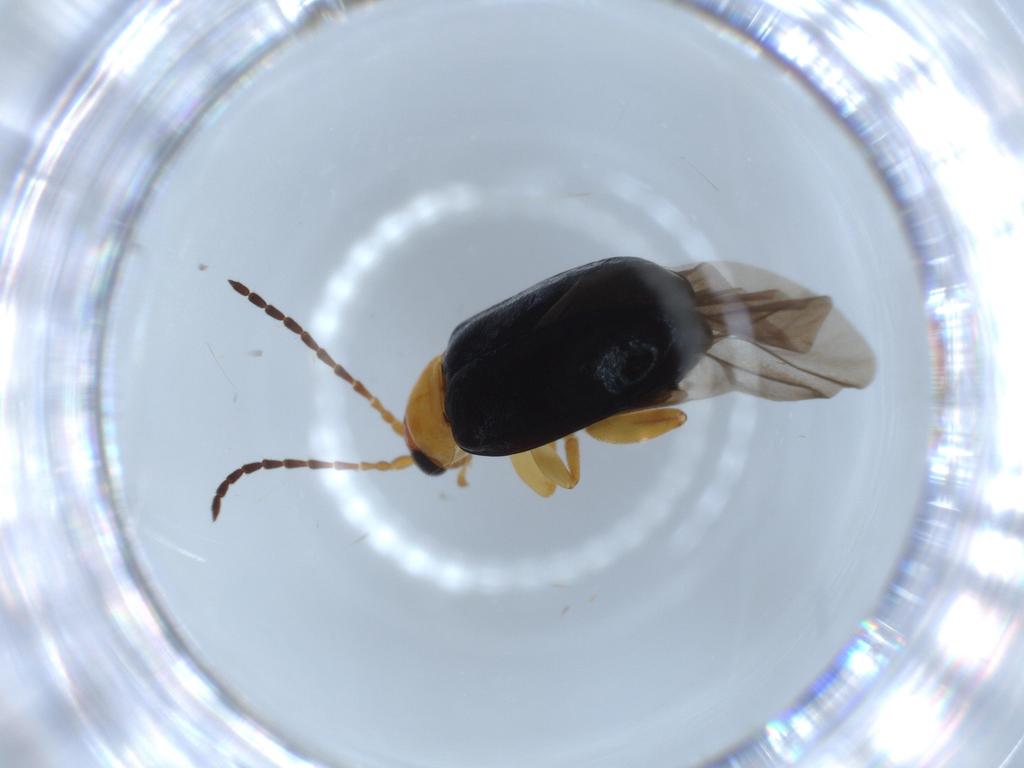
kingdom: Animalia
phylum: Arthropoda
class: Insecta
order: Coleoptera
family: Chrysomelidae
